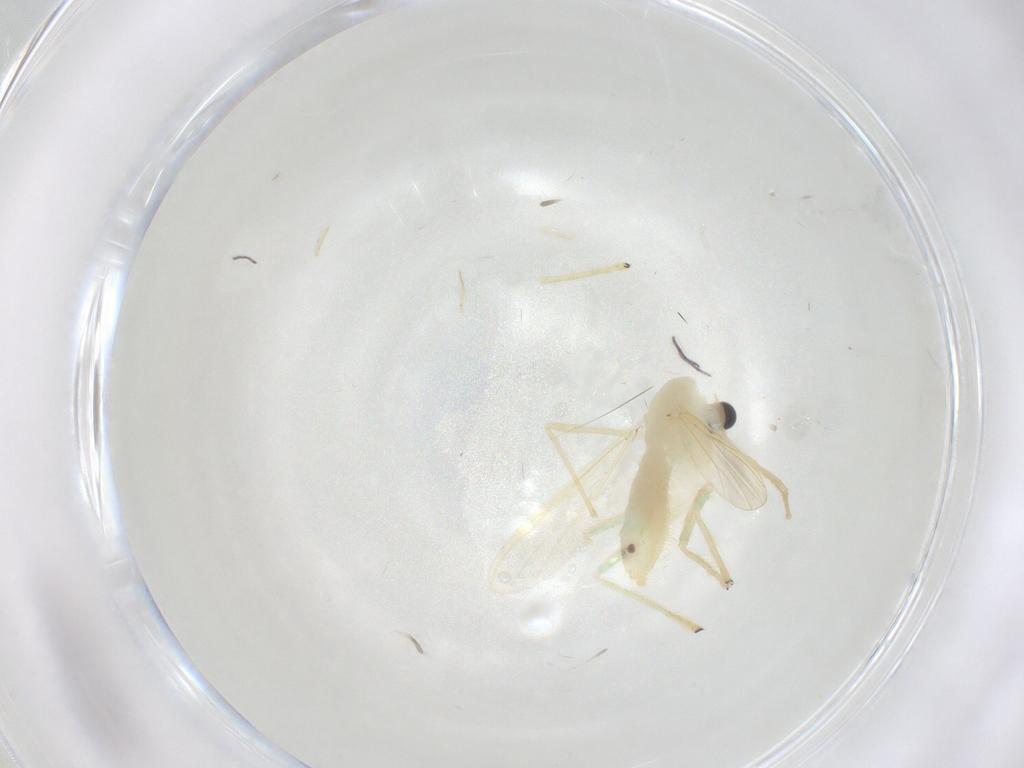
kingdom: Animalia
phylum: Arthropoda
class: Insecta
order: Diptera
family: Chironomidae
